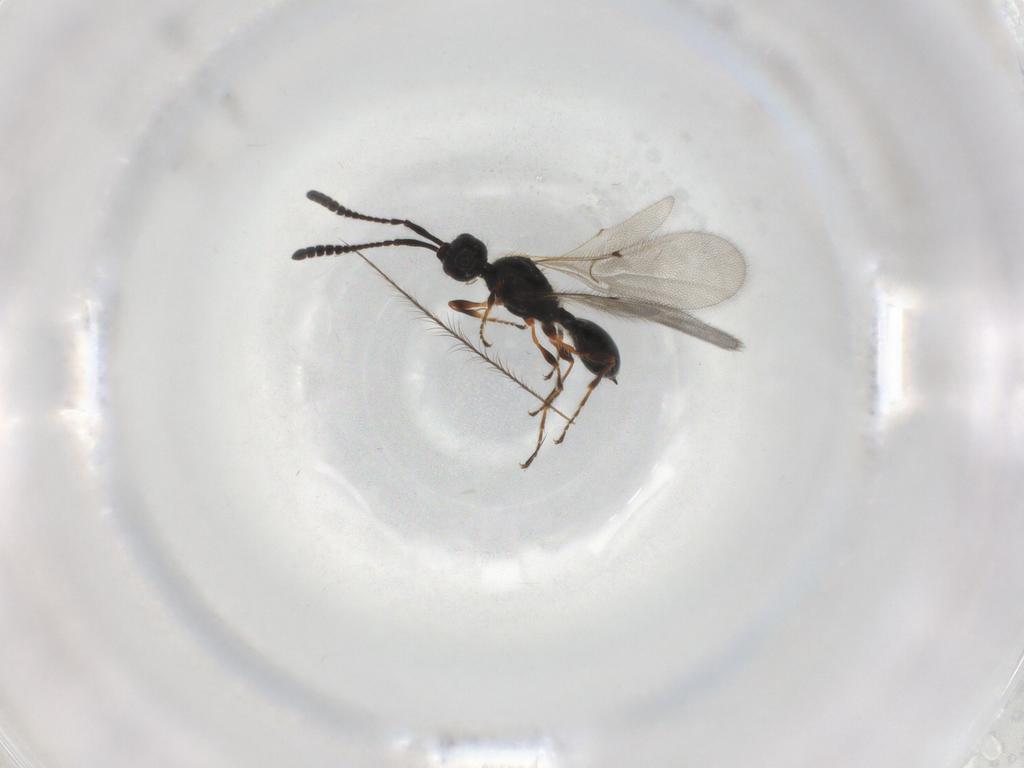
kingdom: Animalia
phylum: Arthropoda
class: Insecta
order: Hymenoptera
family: Diapriidae
